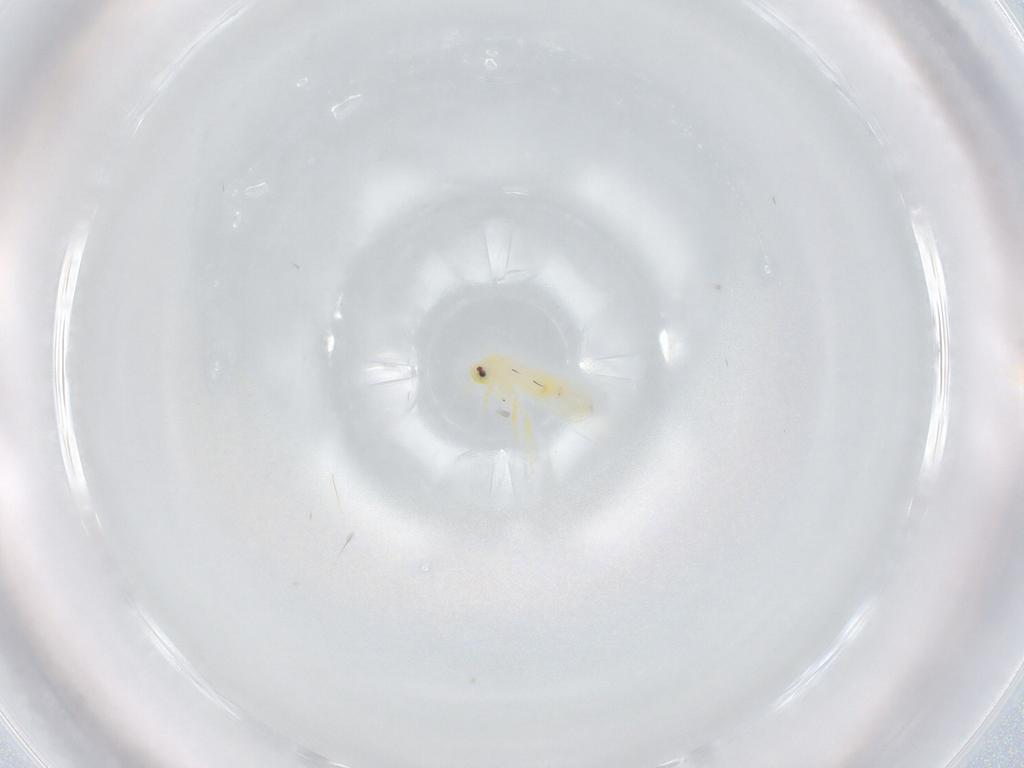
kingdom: Animalia
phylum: Arthropoda
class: Insecta
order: Hemiptera
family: Aleyrodidae
